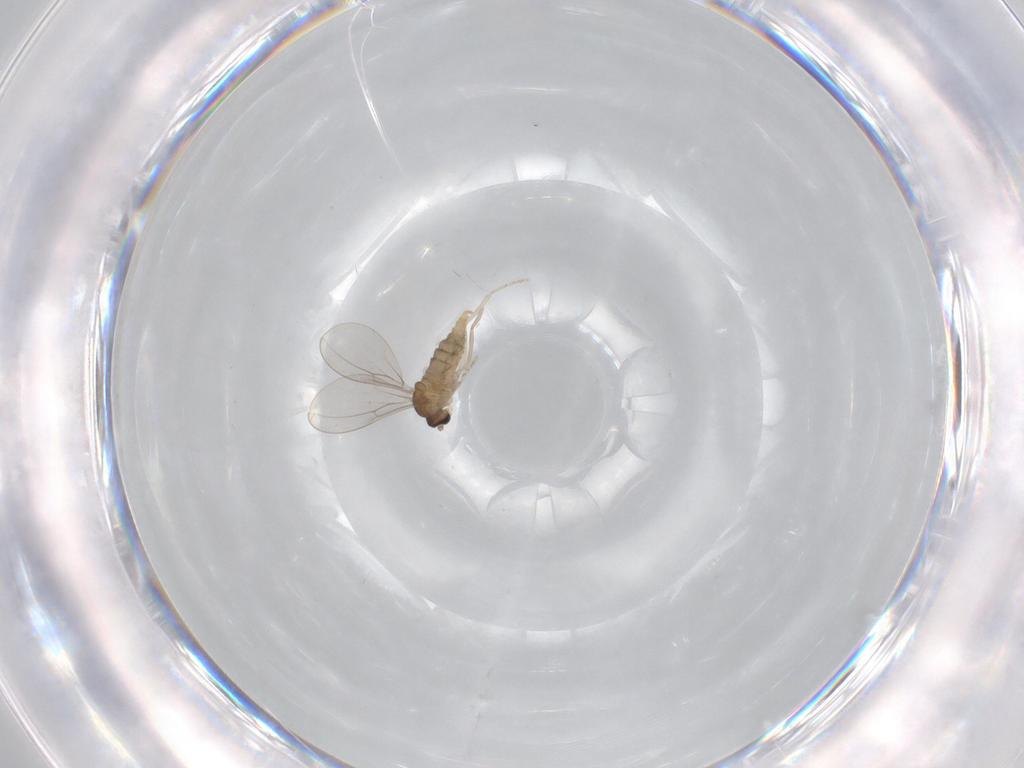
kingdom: Animalia
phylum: Arthropoda
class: Insecta
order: Diptera
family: Cecidomyiidae
